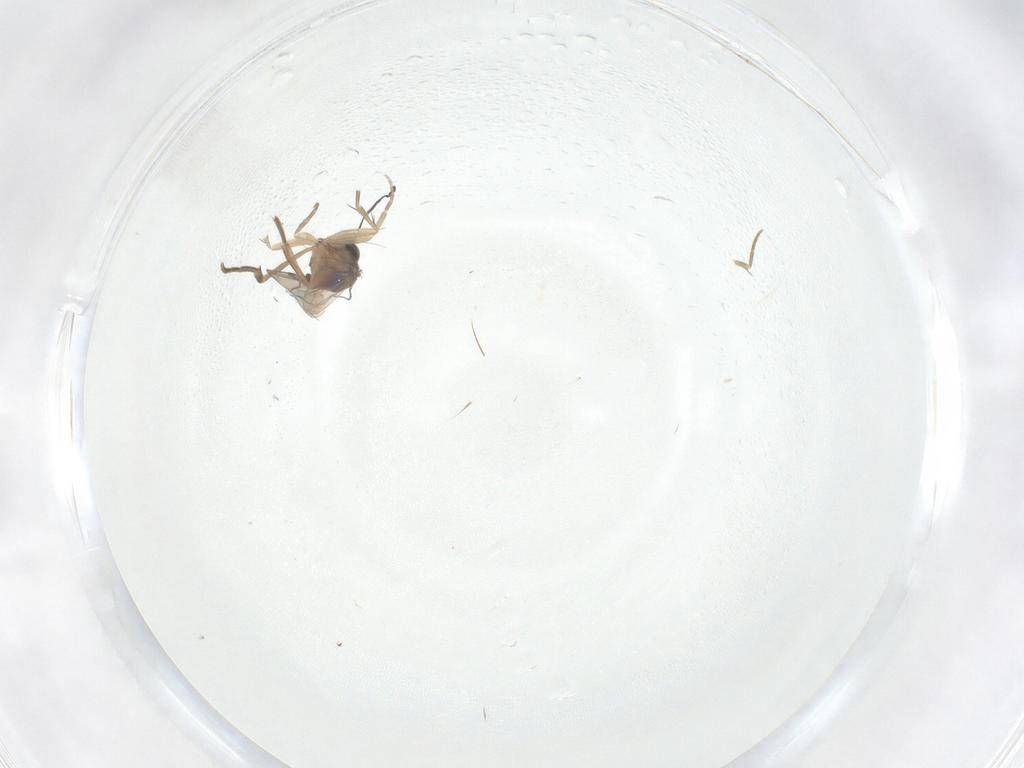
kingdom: Animalia
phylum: Arthropoda
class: Insecta
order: Diptera
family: Phoridae
